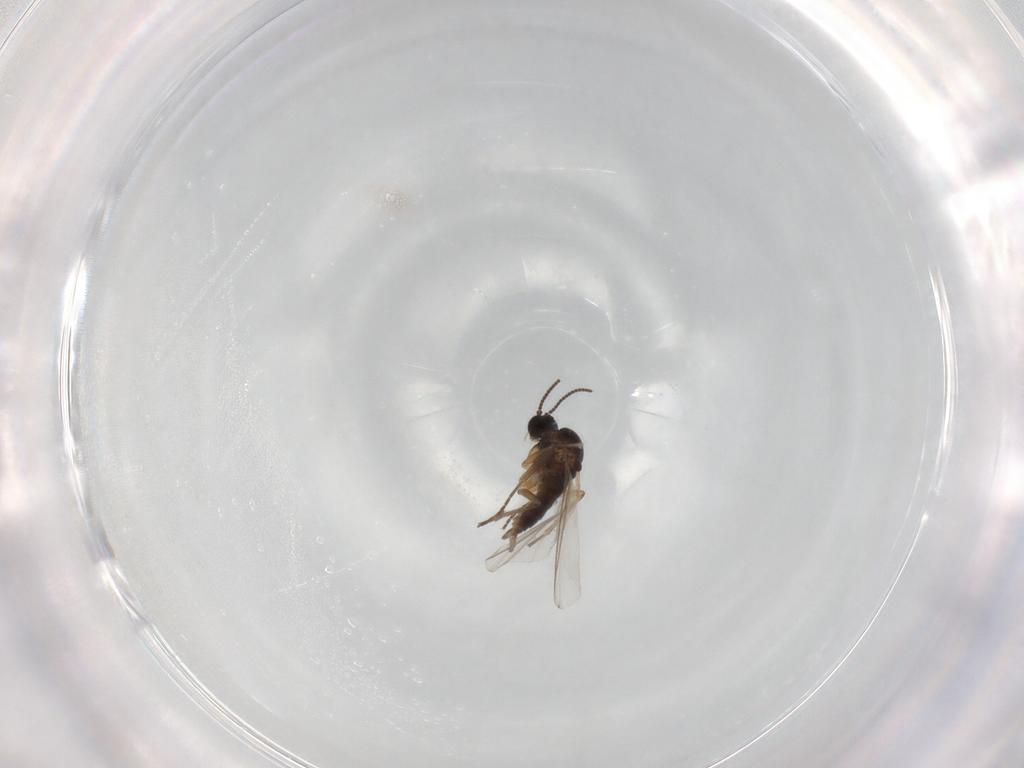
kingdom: Animalia
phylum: Arthropoda
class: Insecta
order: Diptera
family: Sciaridae
